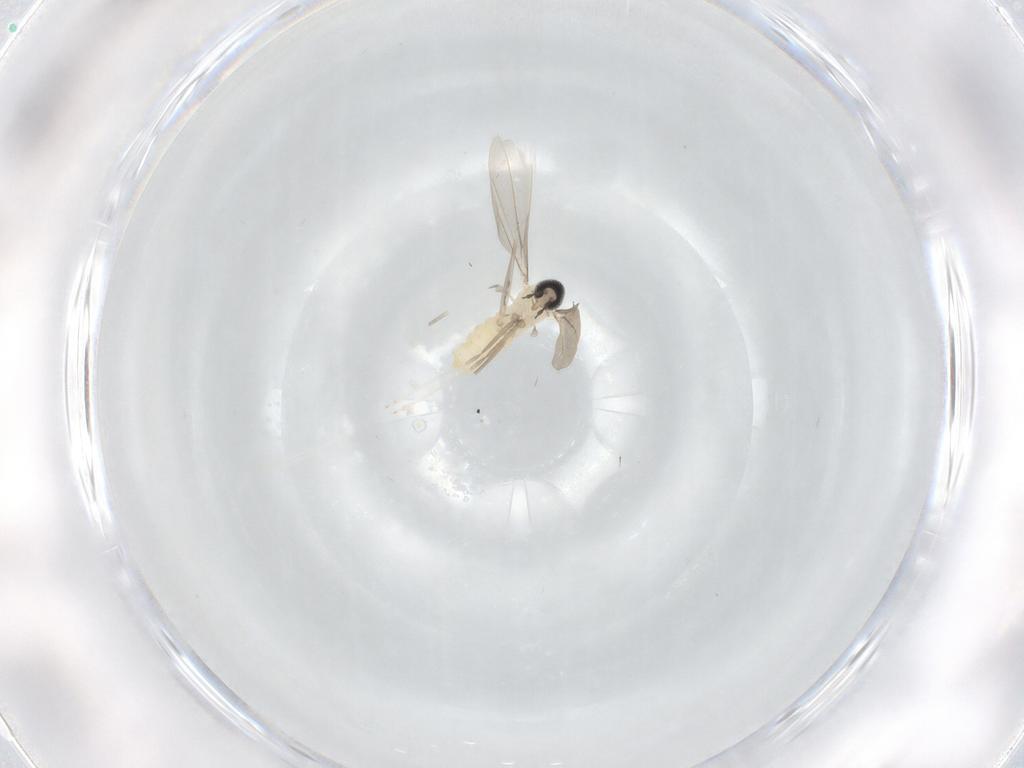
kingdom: Animalia
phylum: Arthropoda
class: Insecta
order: Diptera
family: Cecidomyiidae
